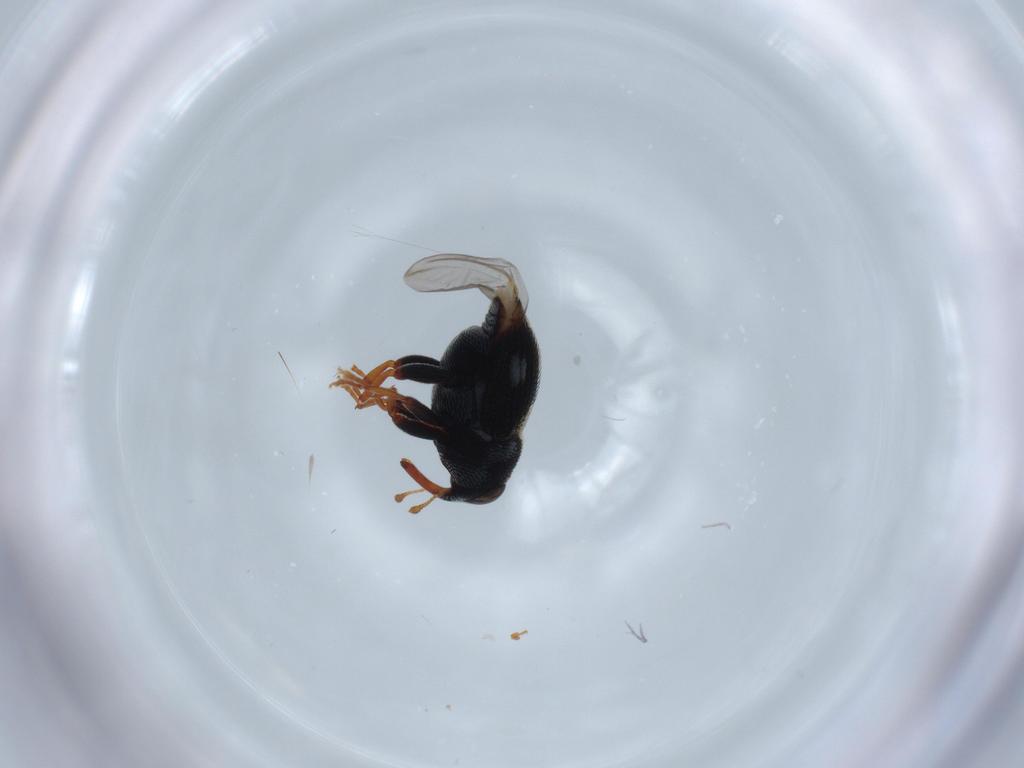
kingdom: Animalia
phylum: Arthropoda
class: Insecta
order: Coleoptera
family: Curculionidae
